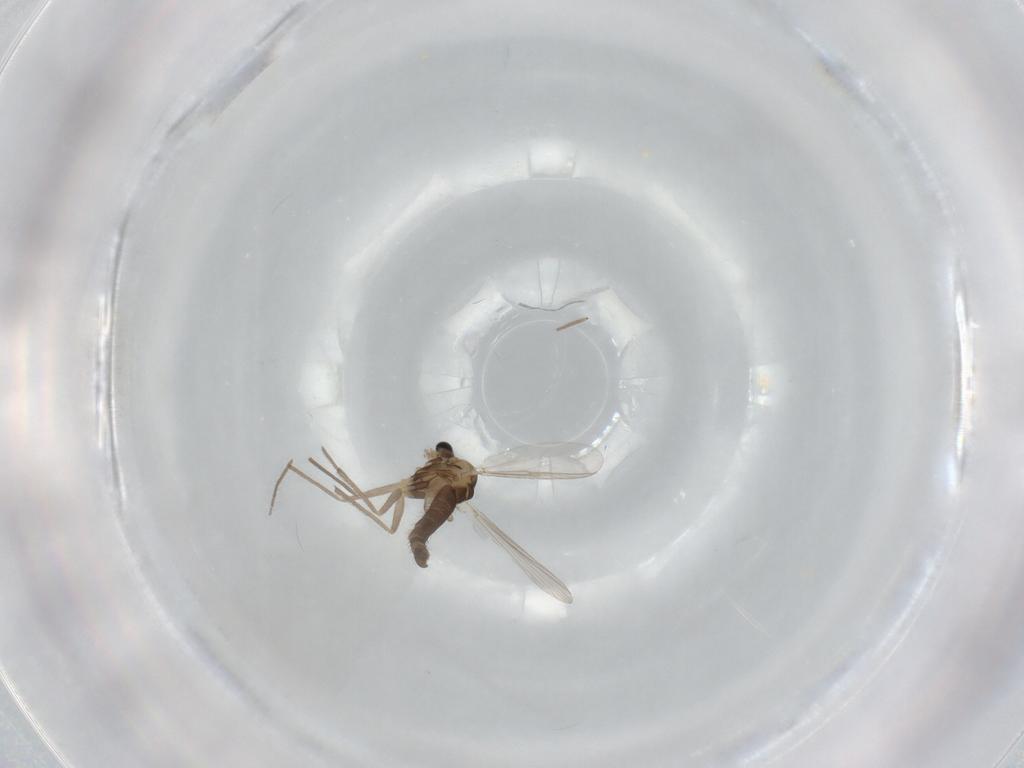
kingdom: Animalia
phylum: Arthropoda
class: Insecta
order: Diptera
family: Chironomidae
